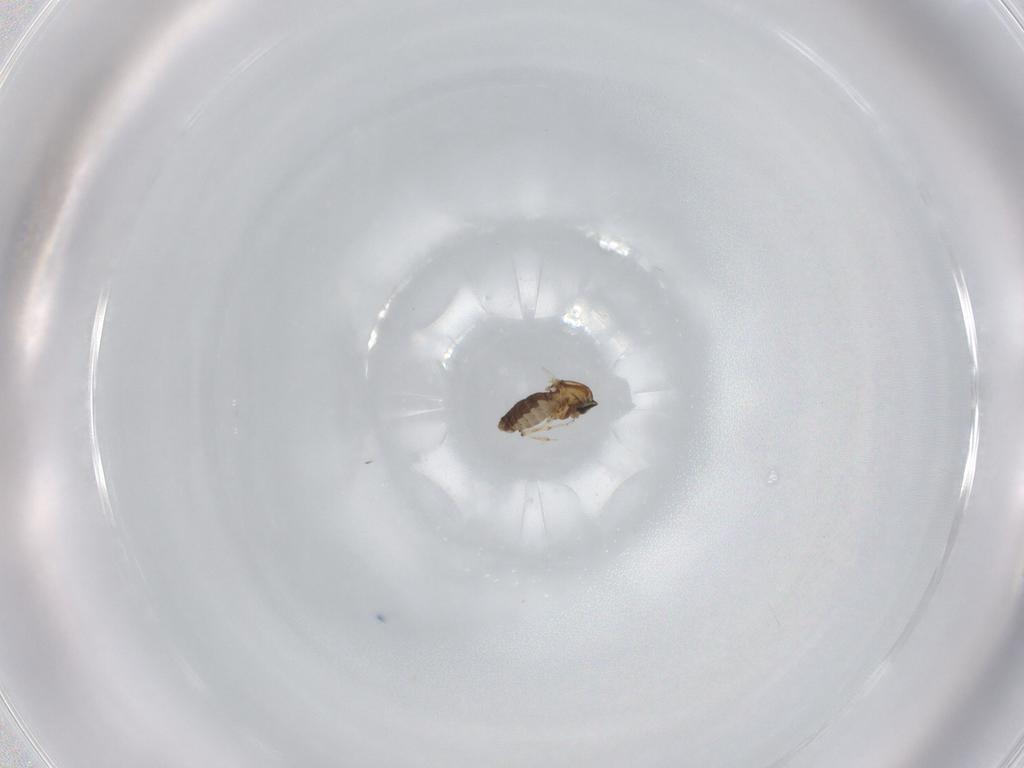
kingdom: Animalia
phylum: Arthropoda
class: Insecta
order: Diptera
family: Ceratopogonidae
